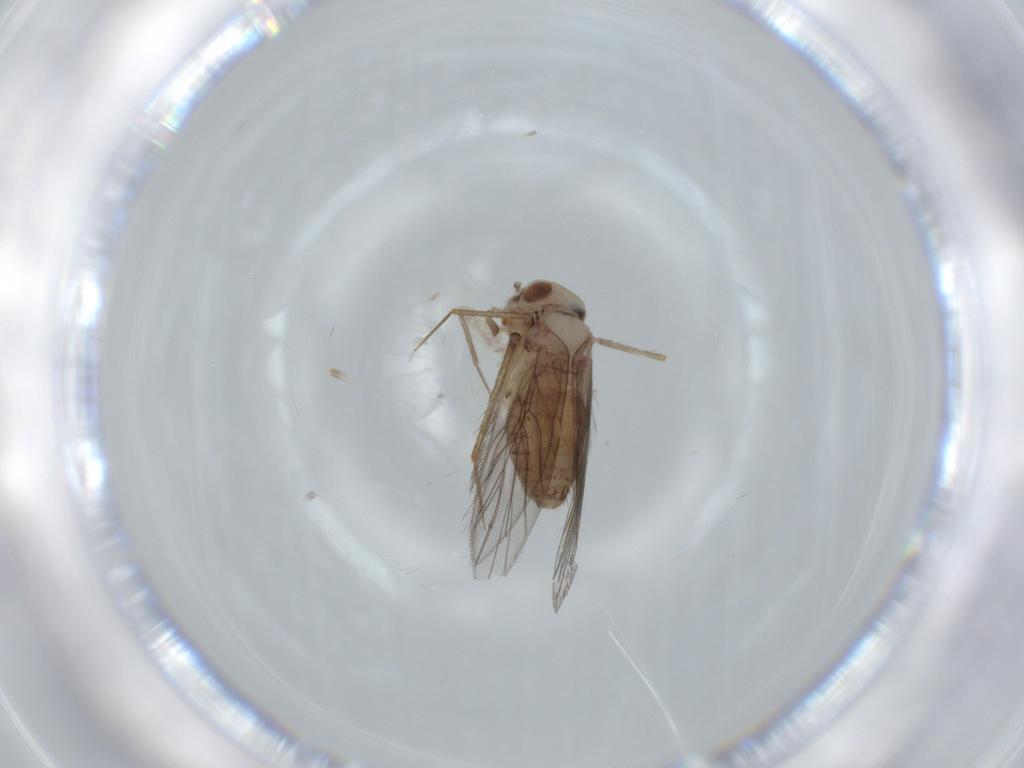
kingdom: Animalia
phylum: Arthropoda
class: Insecta
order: Psocodea
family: Lepidopsocidae
